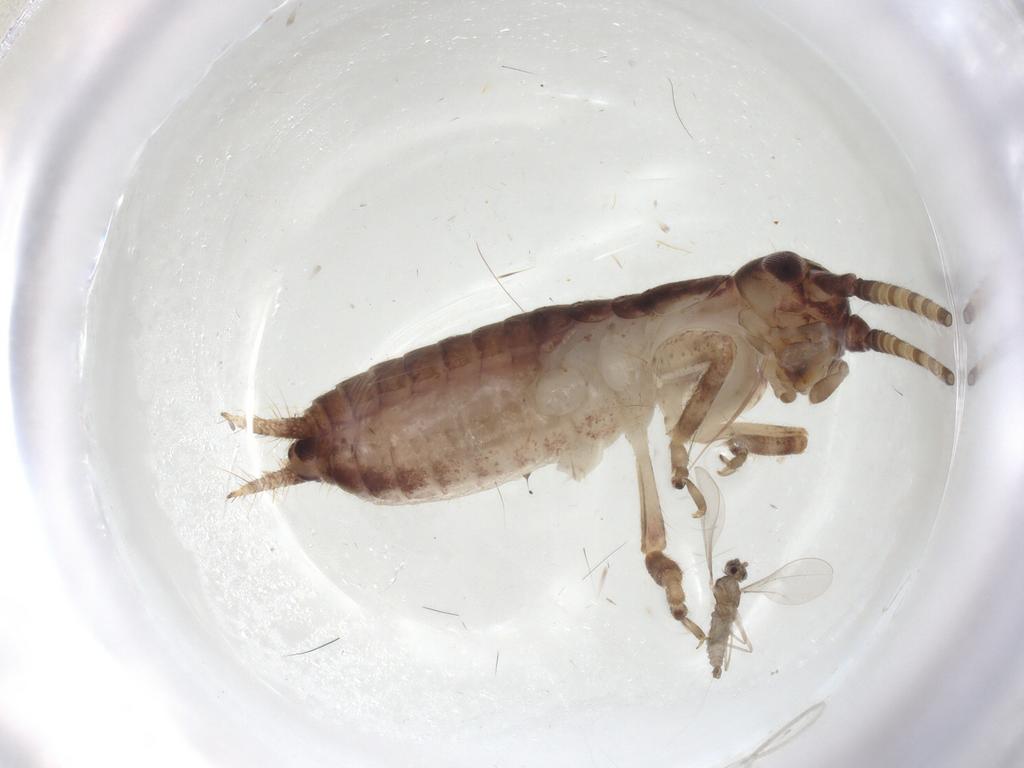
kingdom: Animalia
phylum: Arthropoda
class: Insecta
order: Orthoptera
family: Gryllidae
